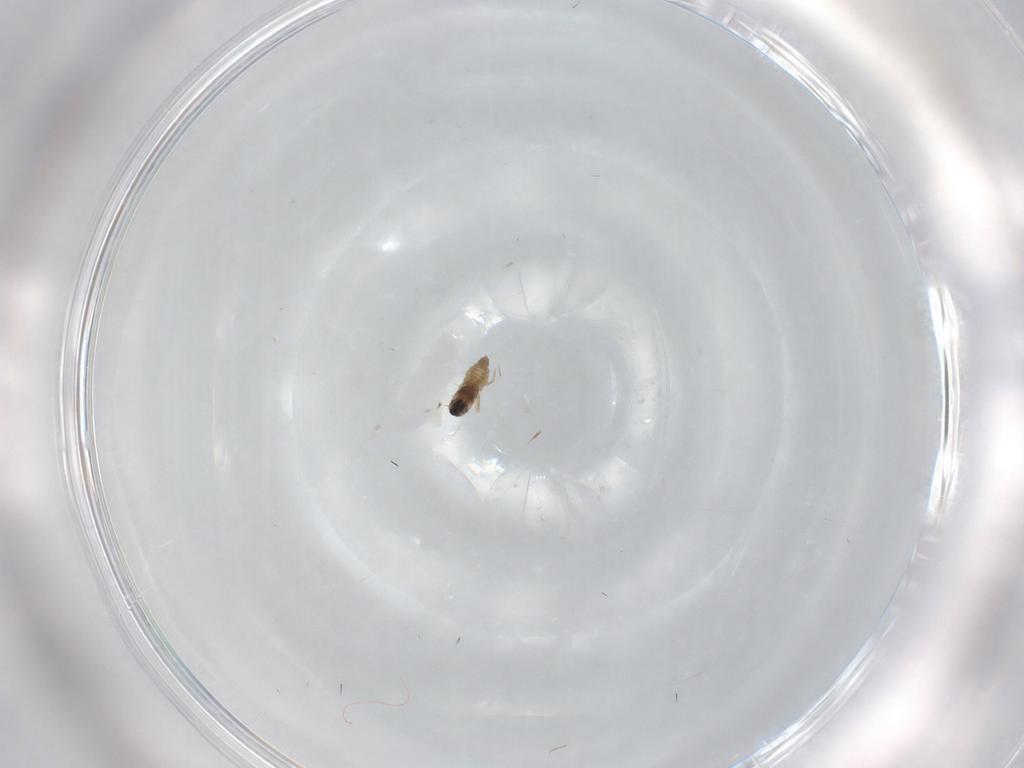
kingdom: Animalia
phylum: Arthropoda
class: Insecta
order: Diptera
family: Cecidomyiidae
